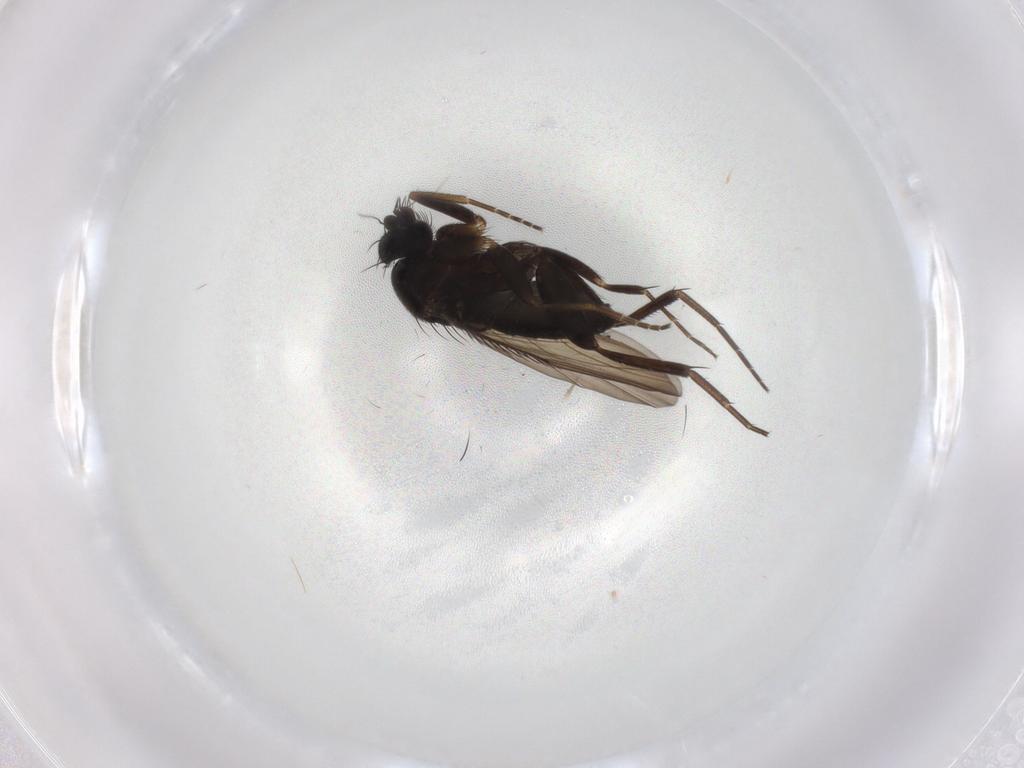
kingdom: Animalia
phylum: Arthropoda
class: Insecta
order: Diptera
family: Phoridae
